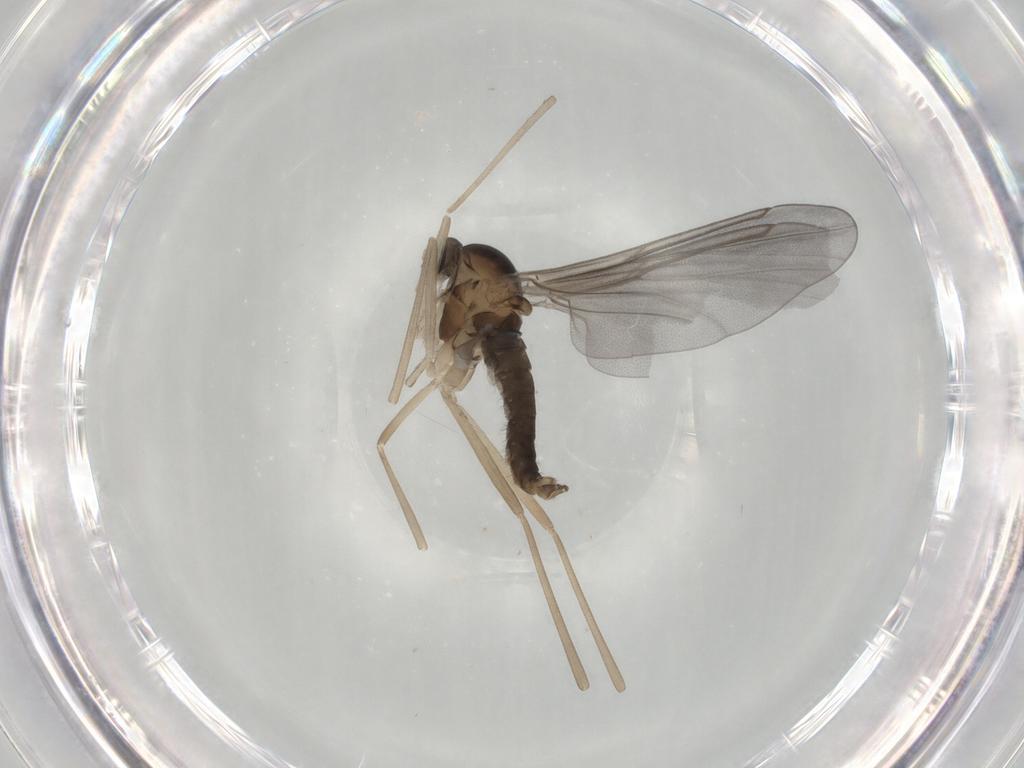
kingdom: Animalia
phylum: Arthropoda
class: Insecta
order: Diptera
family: Cecidomyiidae
